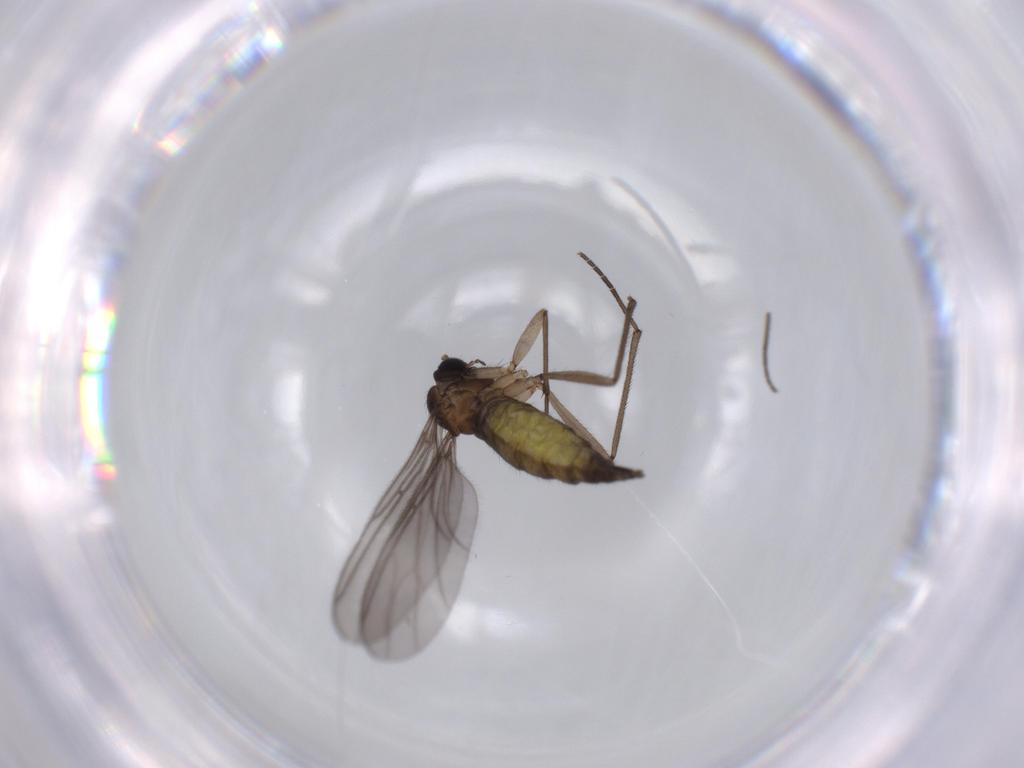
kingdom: Animalia
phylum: Arthropoda
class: Insecta
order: Diptera
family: Sciaridae
